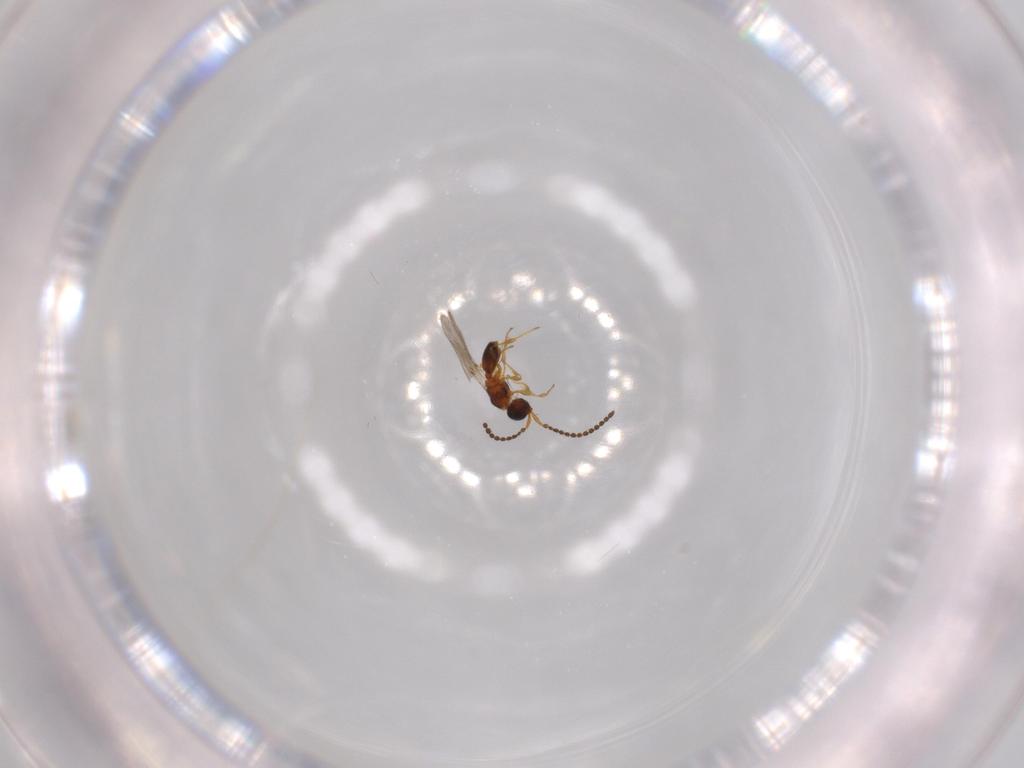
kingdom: Animalia
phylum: Arthropoda
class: Insecta
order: Hymenoptera
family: Diapriidae
